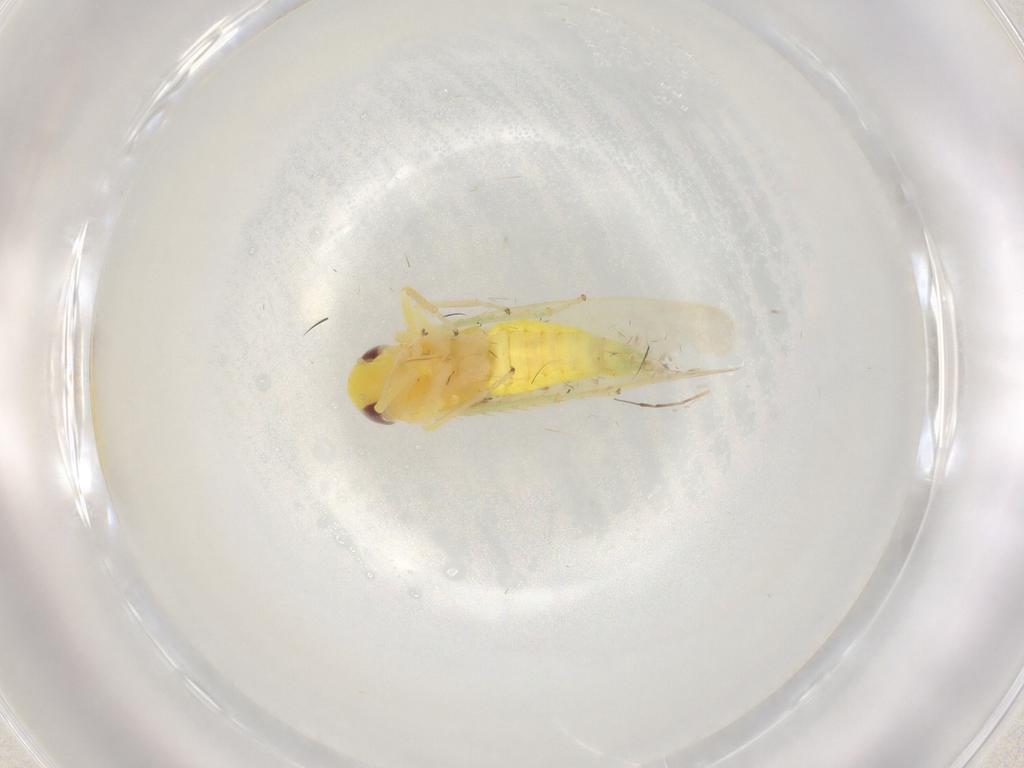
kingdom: Animalia
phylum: Arthropoda
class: Insecta
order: Hemiptera
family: Cicadellidae
